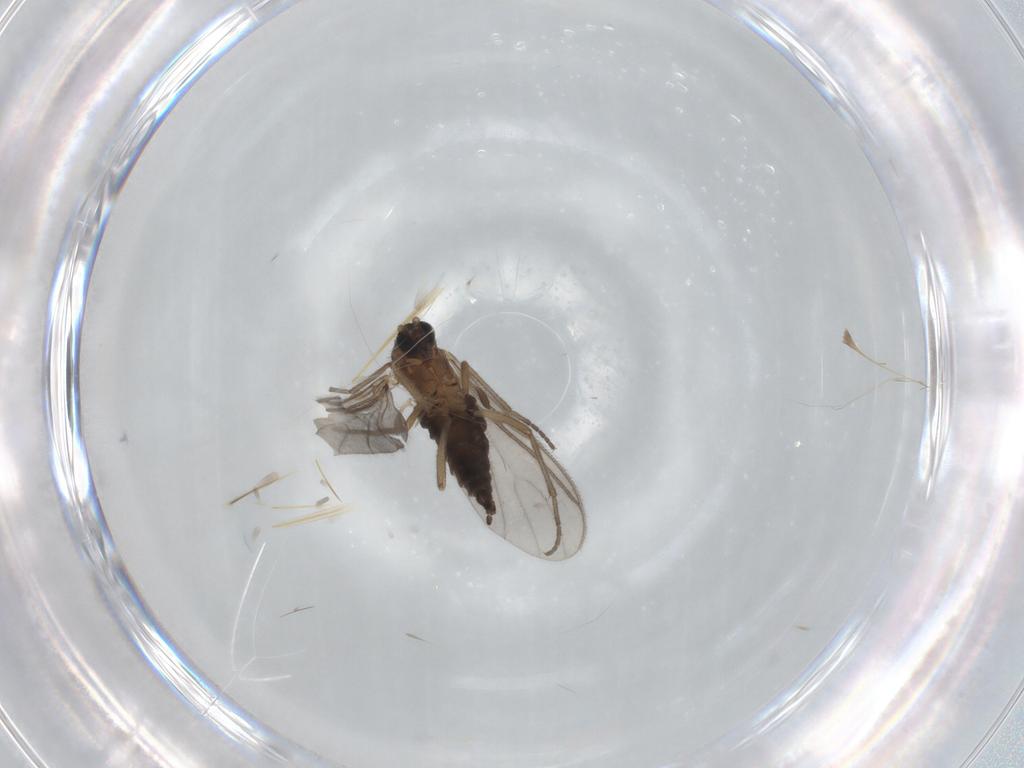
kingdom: Animalia
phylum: Arthropoda
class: Insecta
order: Diptera
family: Sciaridae
